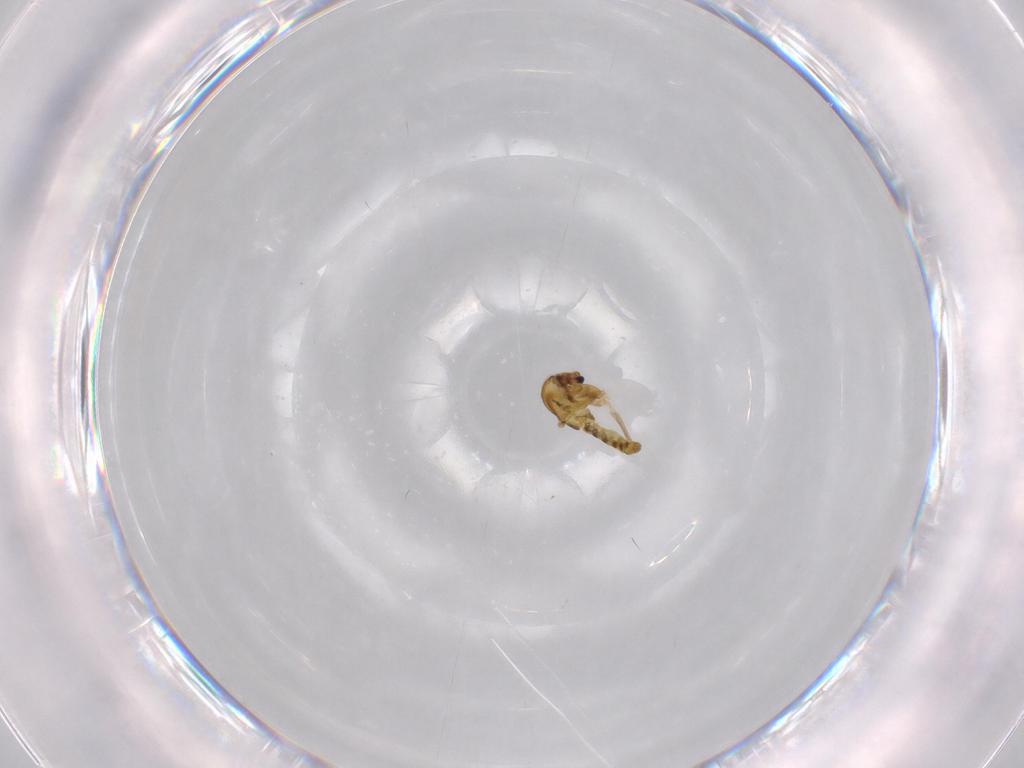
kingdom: Animalia
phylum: Arthropoda
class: Insecta
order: Diptera
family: Chironomidae
